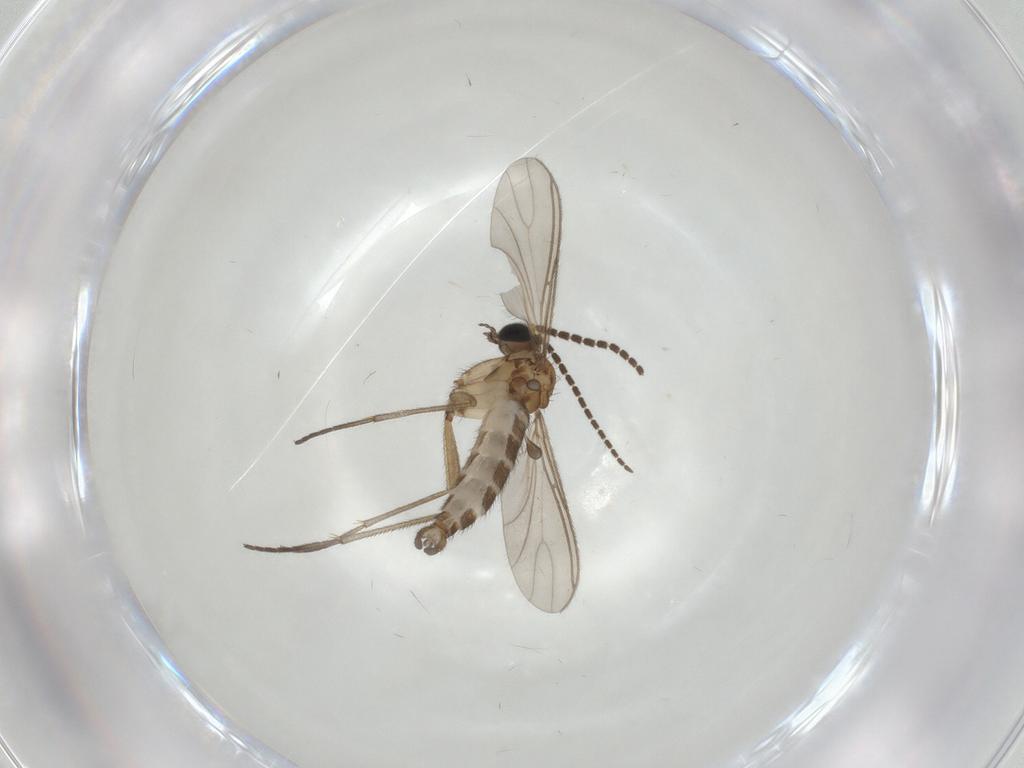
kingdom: Animalia
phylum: Arthropoda
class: Insecta
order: Diptera
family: Sciaridae
